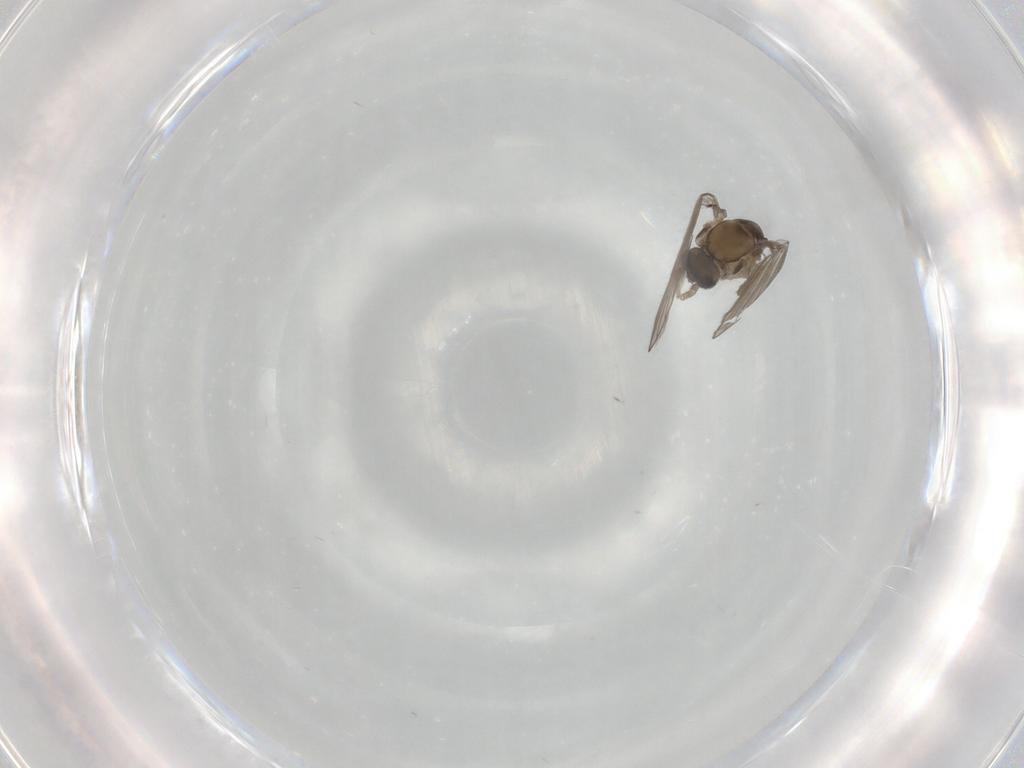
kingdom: Animalia
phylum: Arthropoda
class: Insecta
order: Diptera
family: Psychodidae
